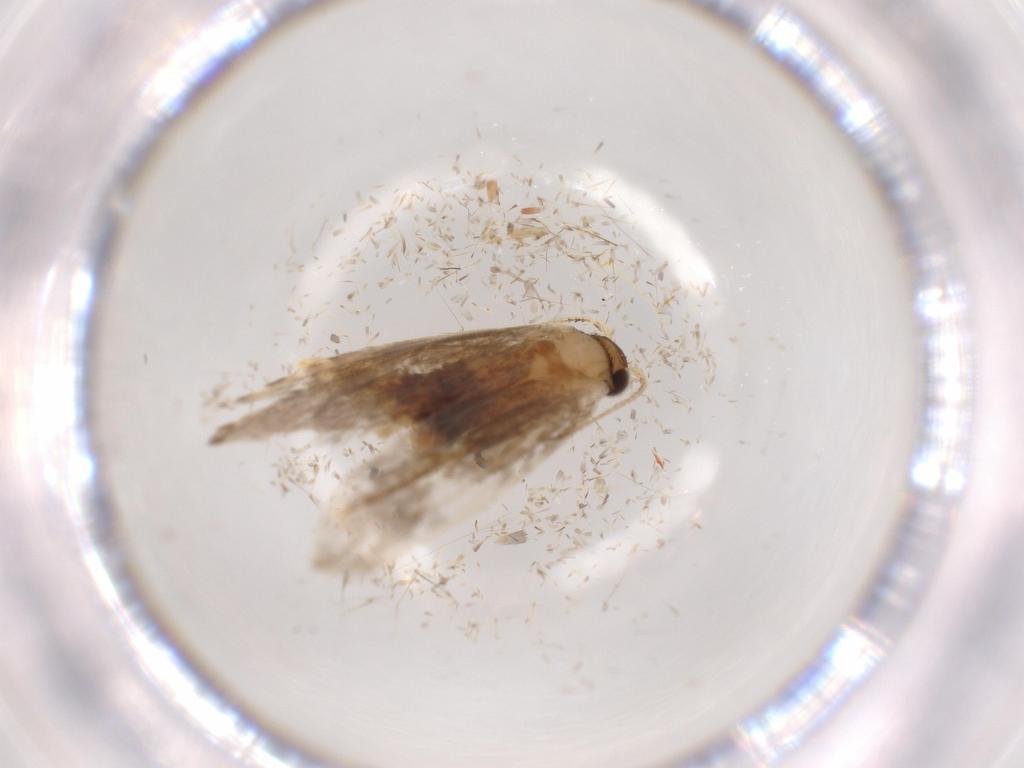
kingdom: Animalia
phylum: Arthropoda
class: Insecta
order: Lepidoptera
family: Tineidae
